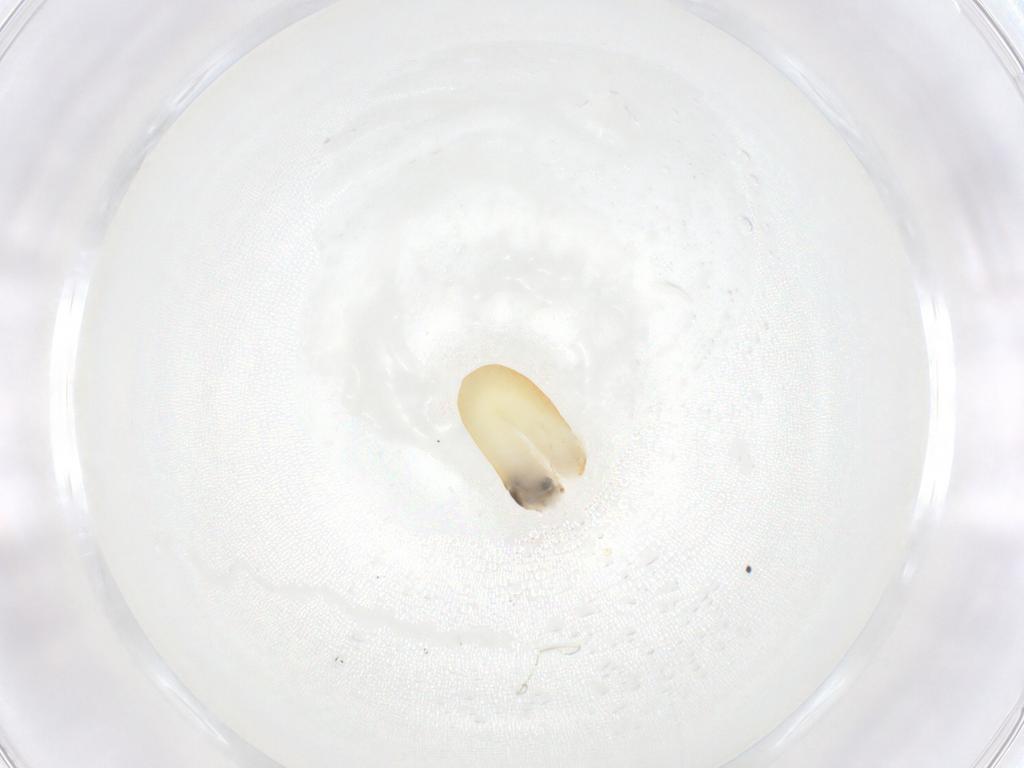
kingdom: Animalia
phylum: Arthropoda
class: Insecta
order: Hymenoptera
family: Dryinidae
